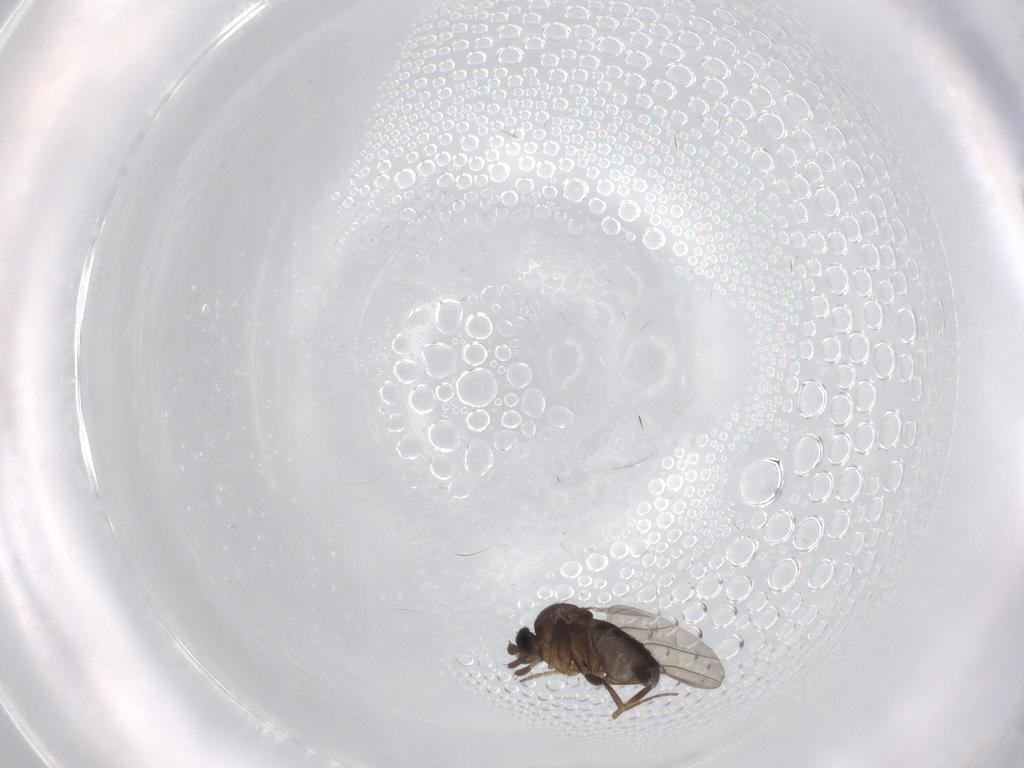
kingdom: Animalia
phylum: Arthropoda
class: Insecta
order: Diptera
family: Phoridae
